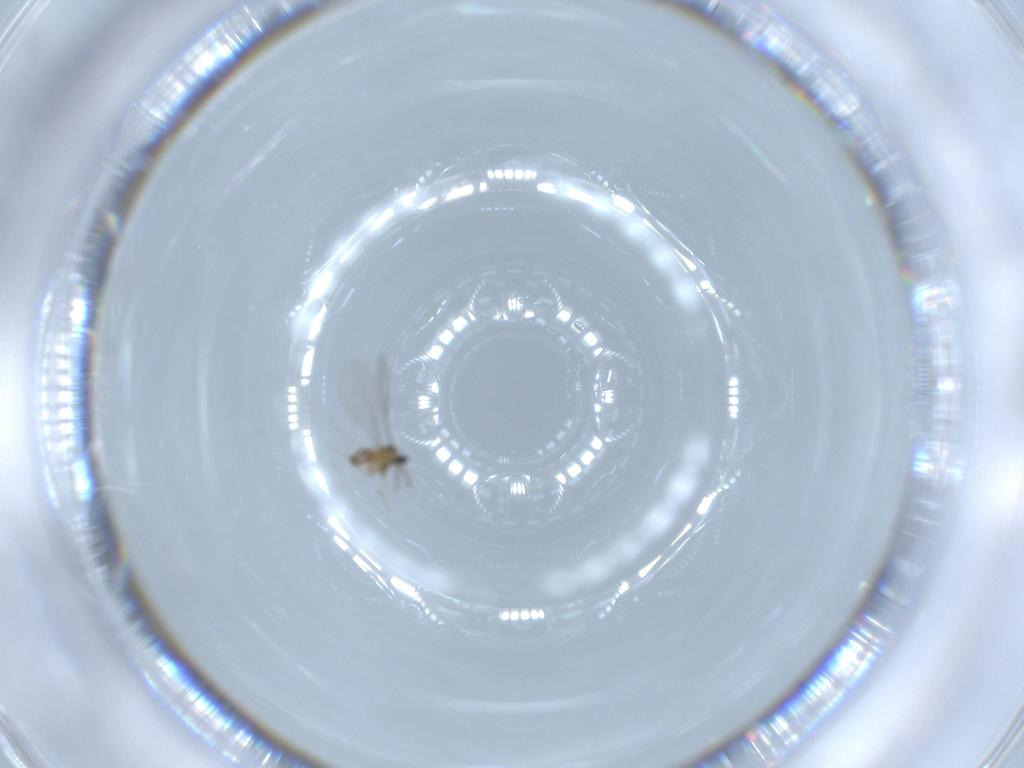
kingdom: Animalia
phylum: Arthropoda
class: Insecta
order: Diptera
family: Sciaridae
